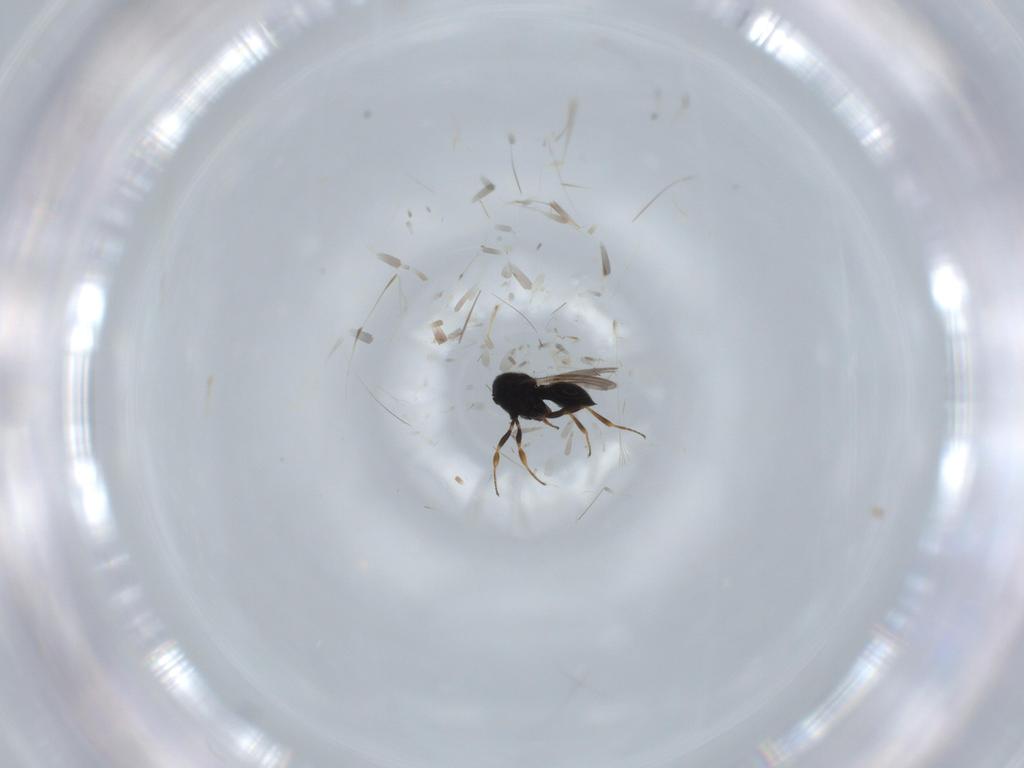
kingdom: Animalia
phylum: Arthropoda
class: Insecta
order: Hymenoptera
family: Scelionidae
